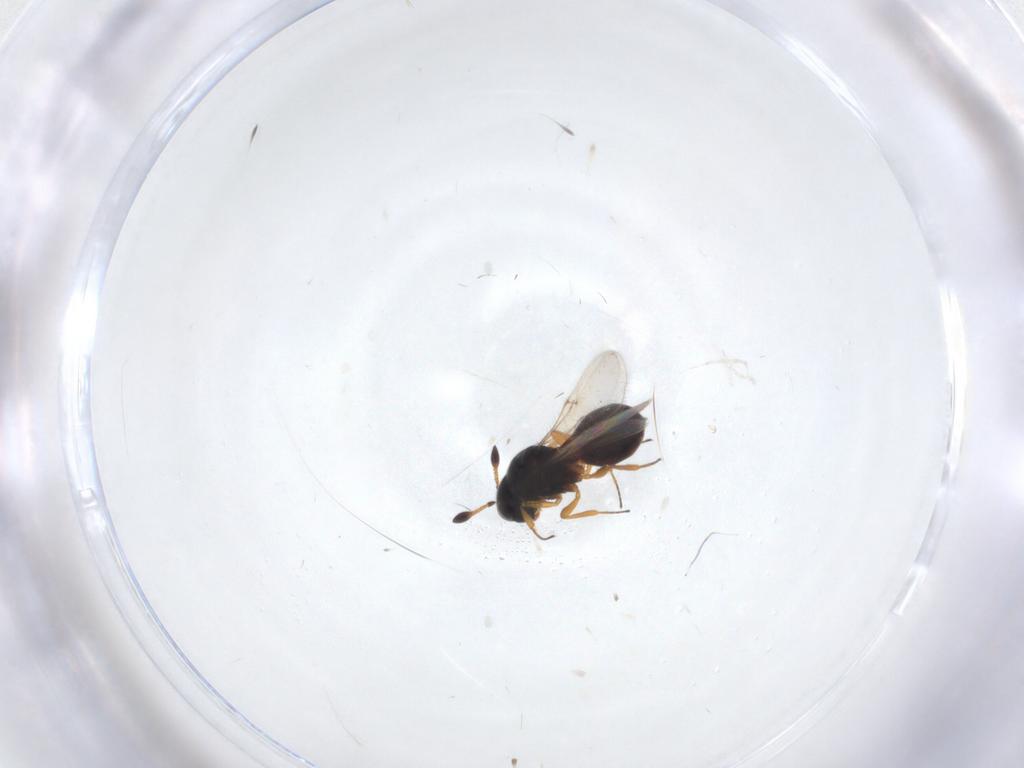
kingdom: Animalia
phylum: Arthropoda
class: Insecta
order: Hymenoptera
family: Scelionidae
